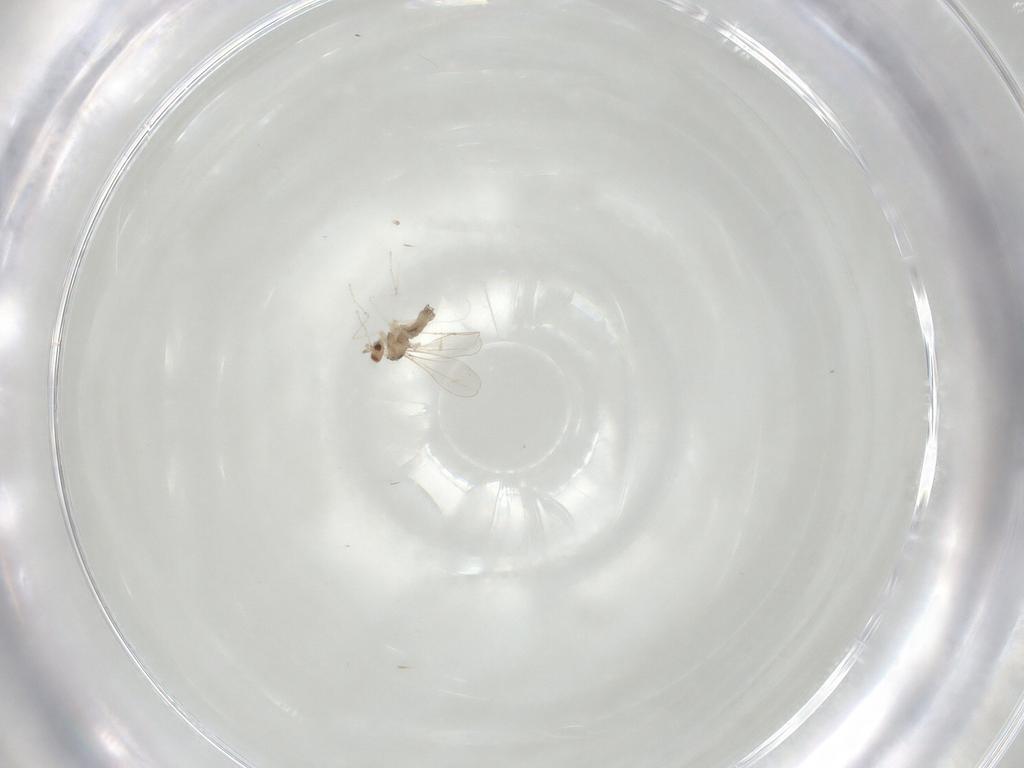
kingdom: Animalia
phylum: Arthropoda
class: Insecta
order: Diptera
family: Cecidomyiidae
